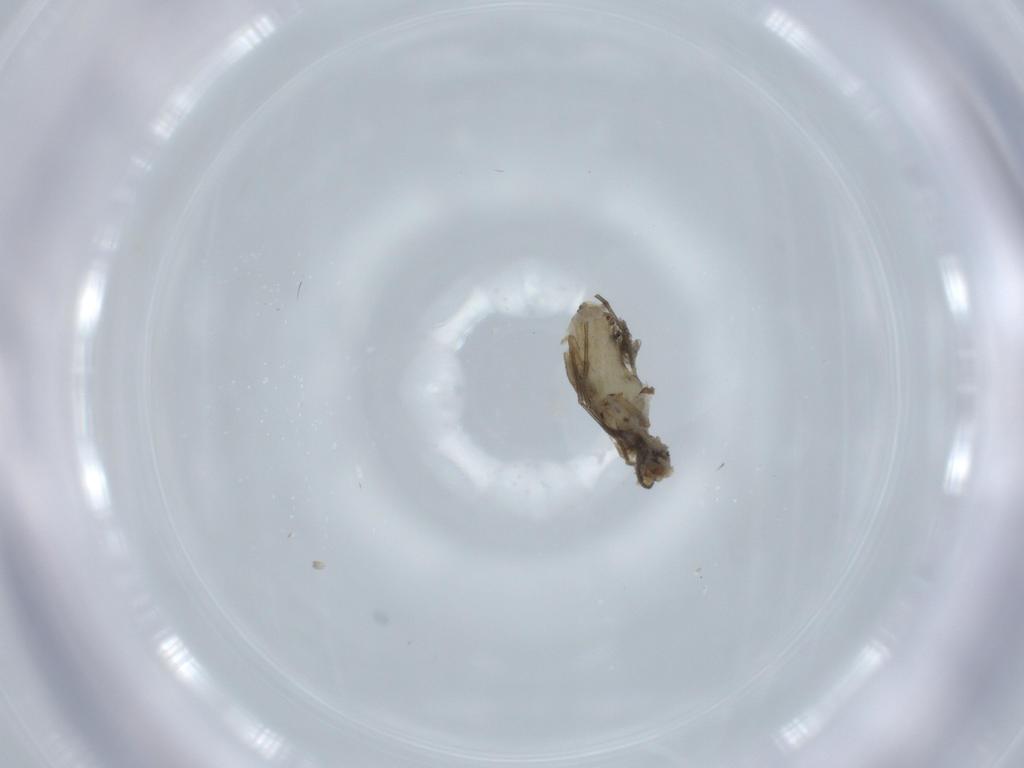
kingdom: Animalia
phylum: Arthropoda
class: Insecta
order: Diptera
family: Sciaridae
